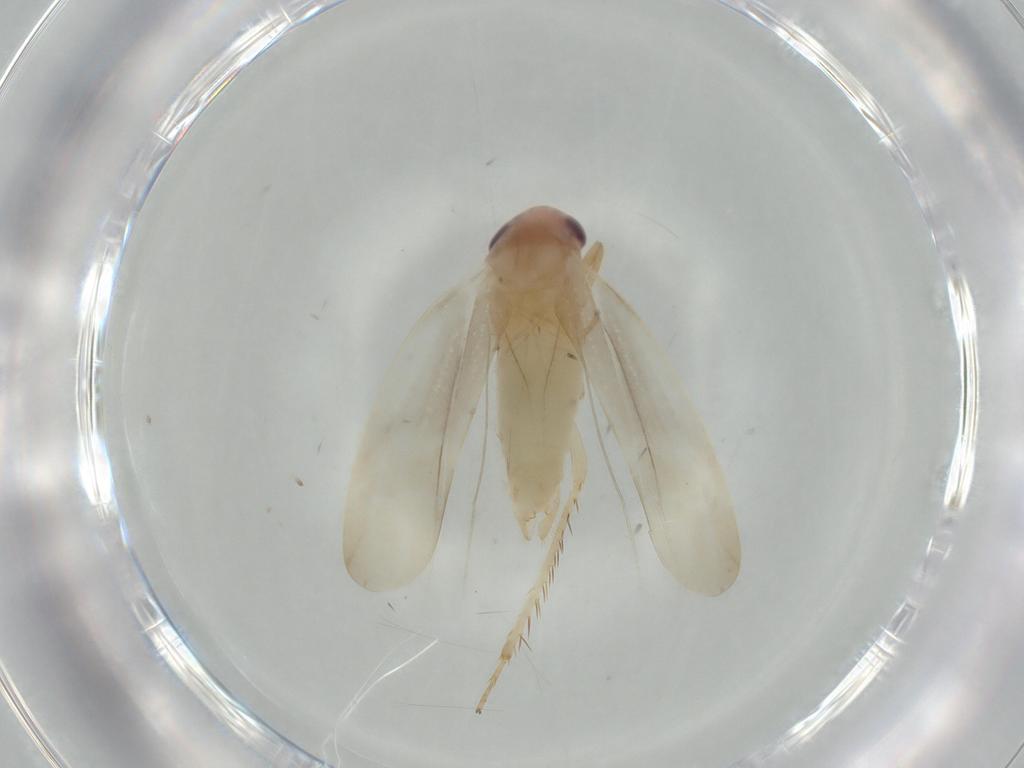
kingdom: Animalia
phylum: Arthropoda
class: Insecta
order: Hemiptera
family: Cicadellidae
